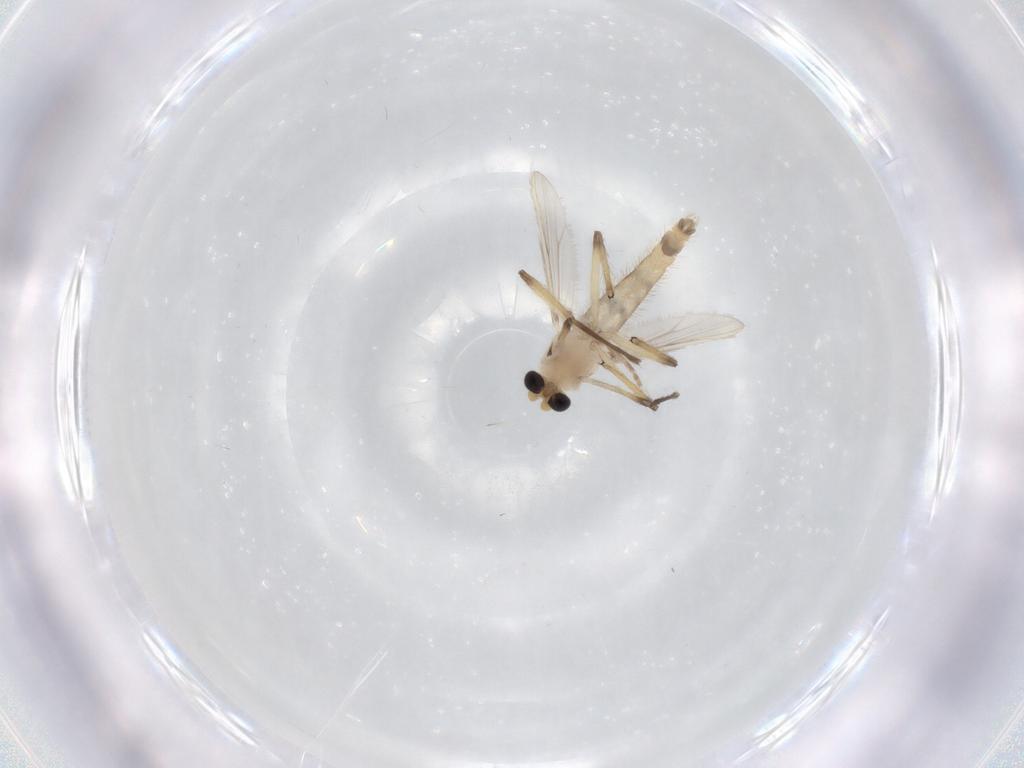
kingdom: Animalia
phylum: Arthropoda
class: Insecta
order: Diptera
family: Chironomidae
